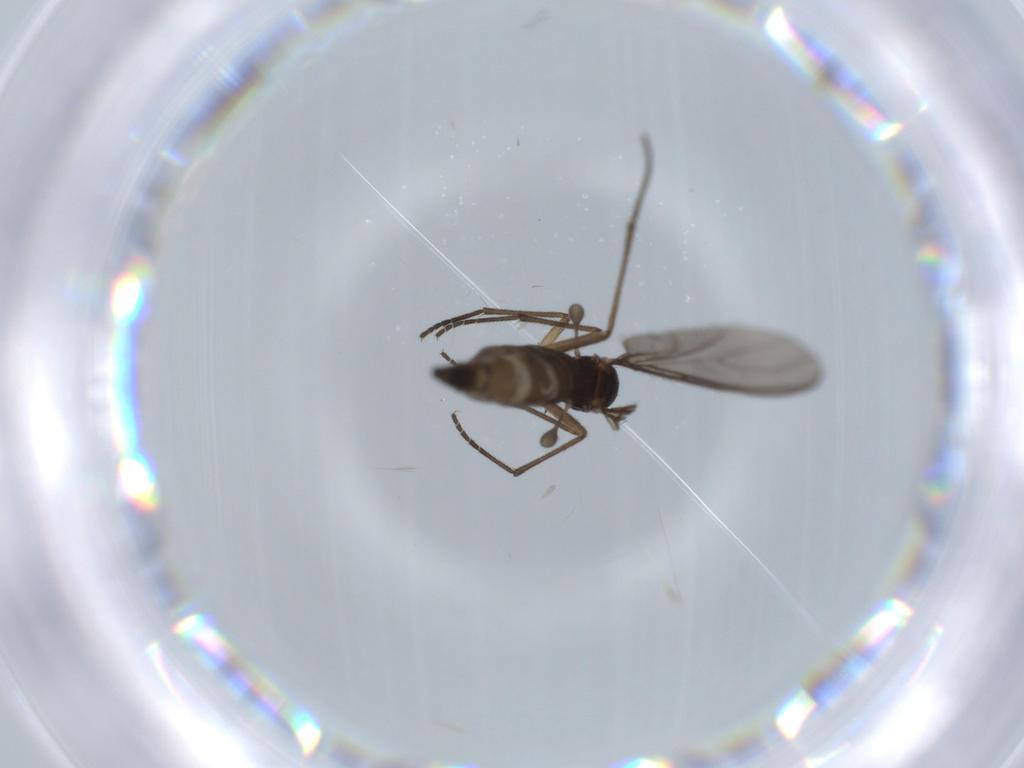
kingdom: Animalia
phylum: Arthropoda
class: Insecta
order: Diptera
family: Sciaridae
